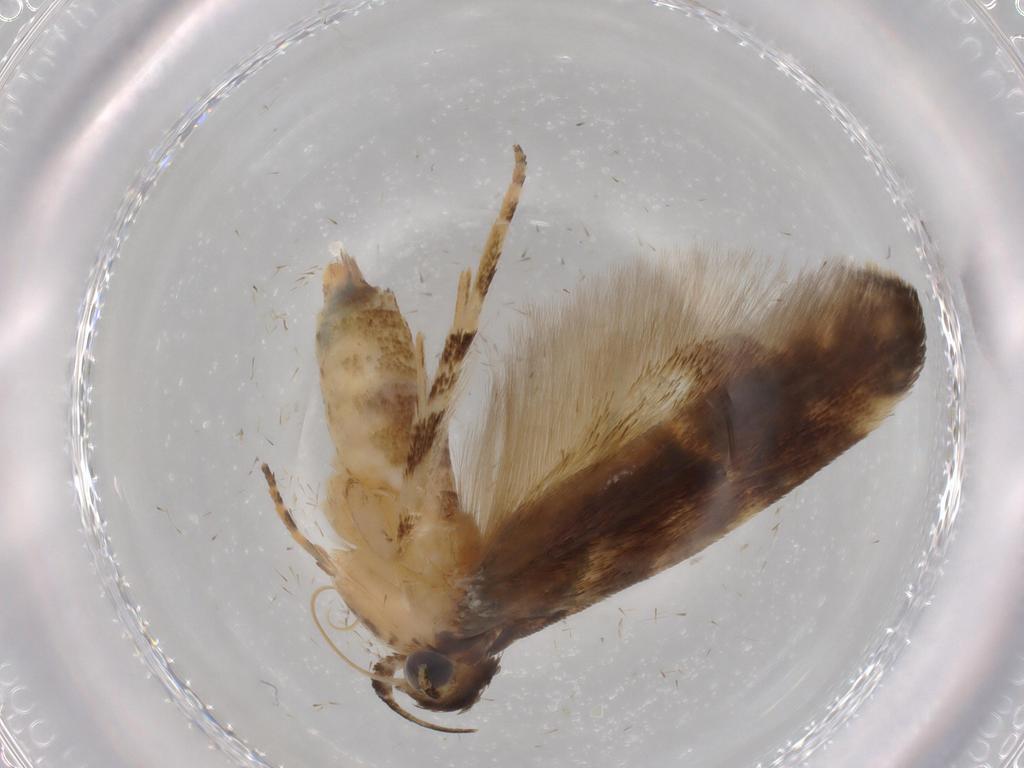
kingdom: Animalia
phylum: Arthropoda
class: Insecta
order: Lepidoptera
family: Gelechiidae
